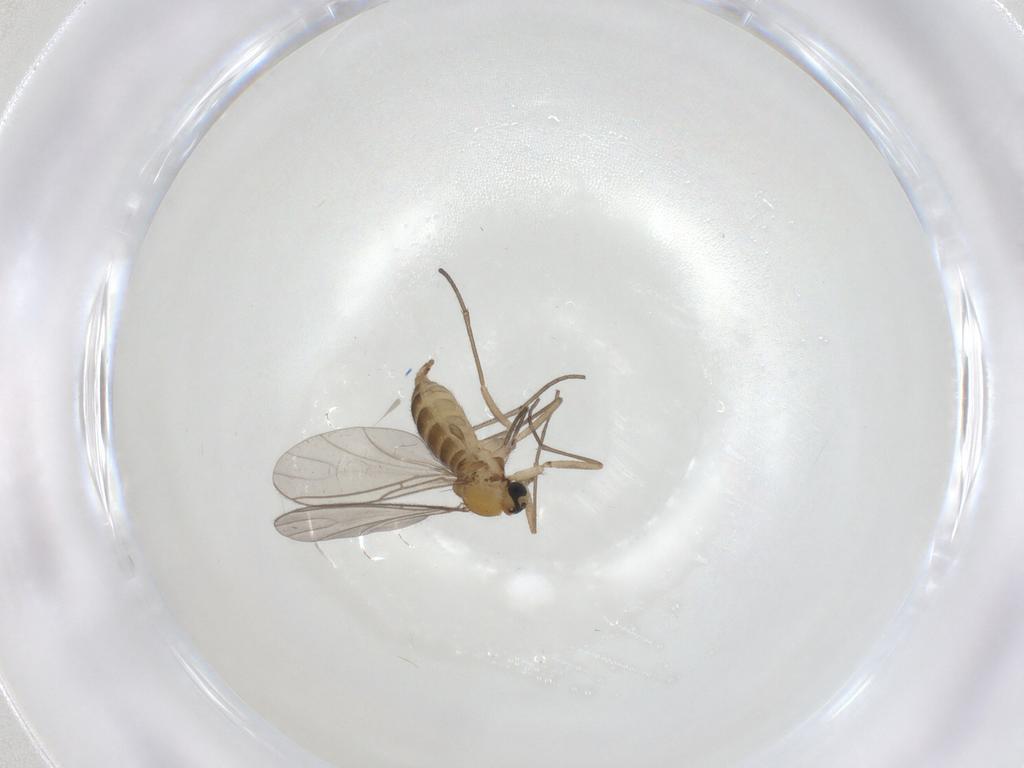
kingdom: Animalia
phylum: Arthropoda
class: Insecta
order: Diptera
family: Sciaridae
